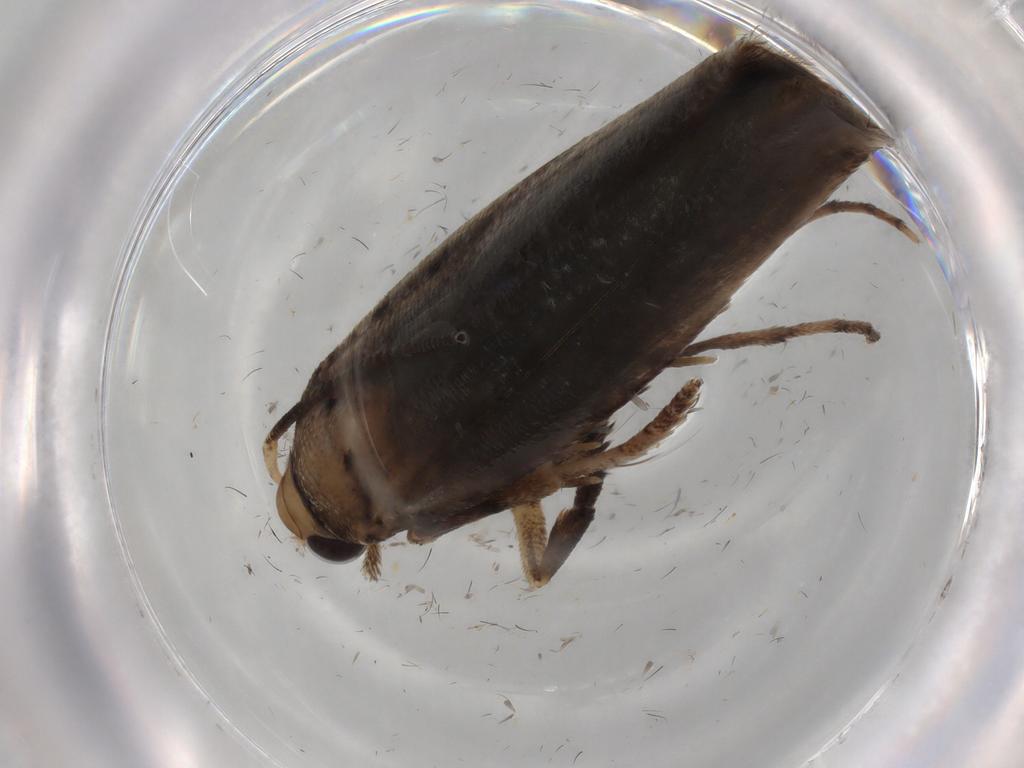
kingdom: Animalia
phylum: Arthropoda
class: Insecta
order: Lepidoptera
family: Yponomeutidae
